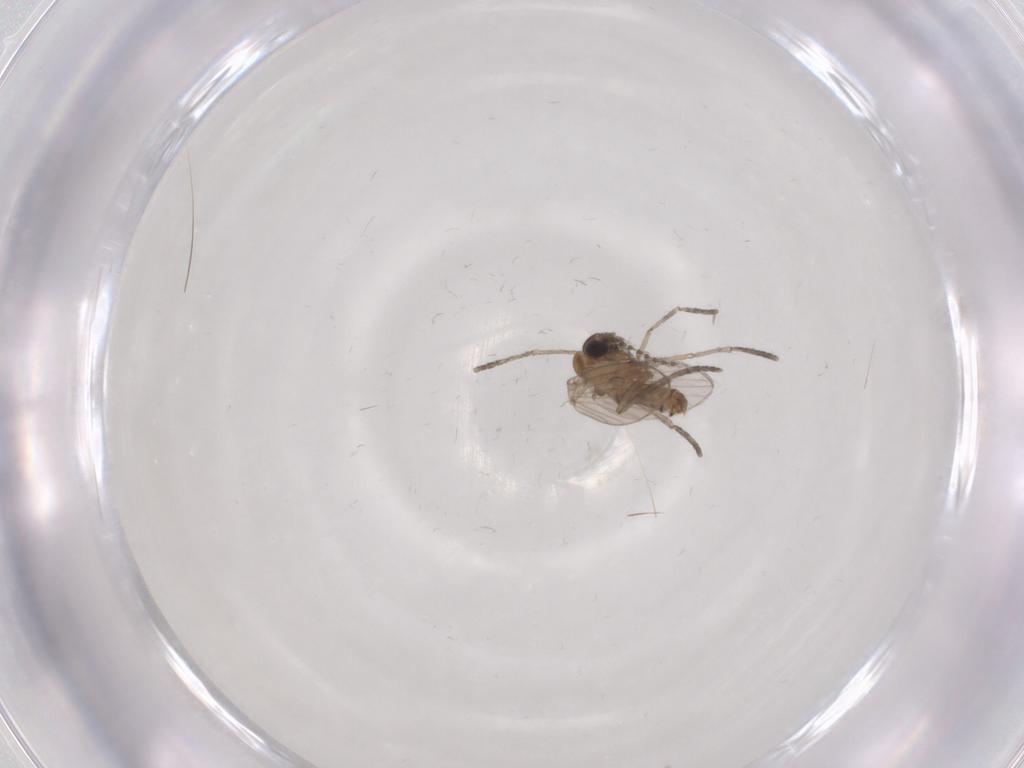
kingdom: Animalia
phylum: Arthropoda
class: Insecta
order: Diptera
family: Psychodidae
